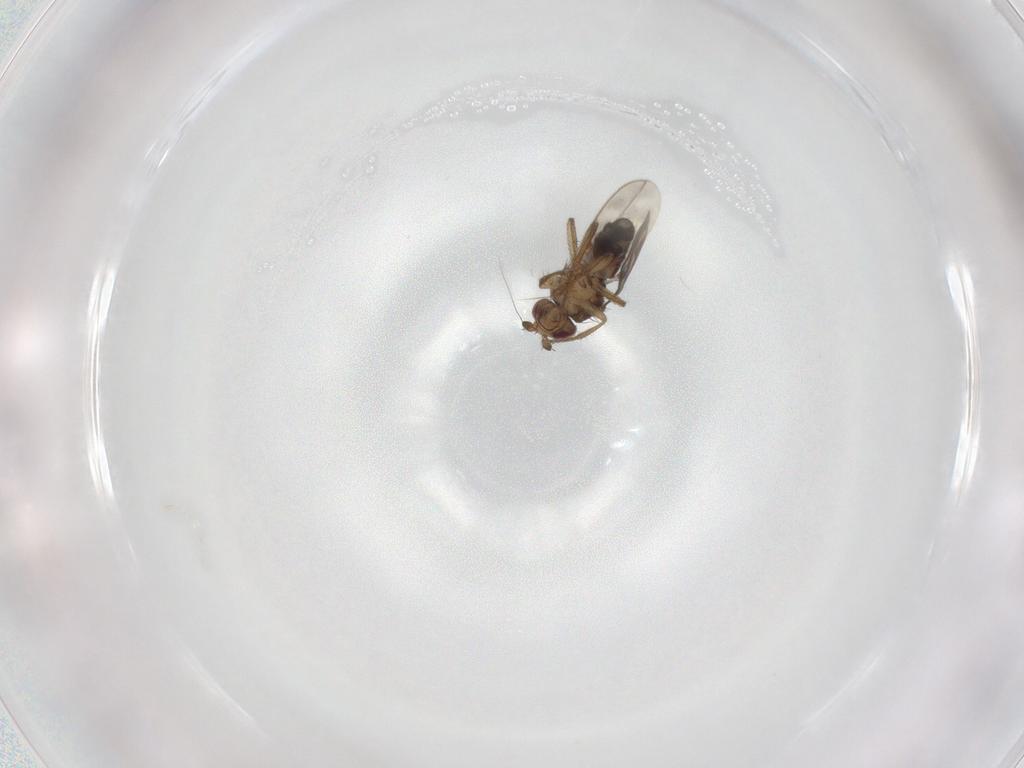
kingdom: Animalia
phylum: Arthropoda
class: Insecta
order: Diptera
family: Sphaeroceridae
